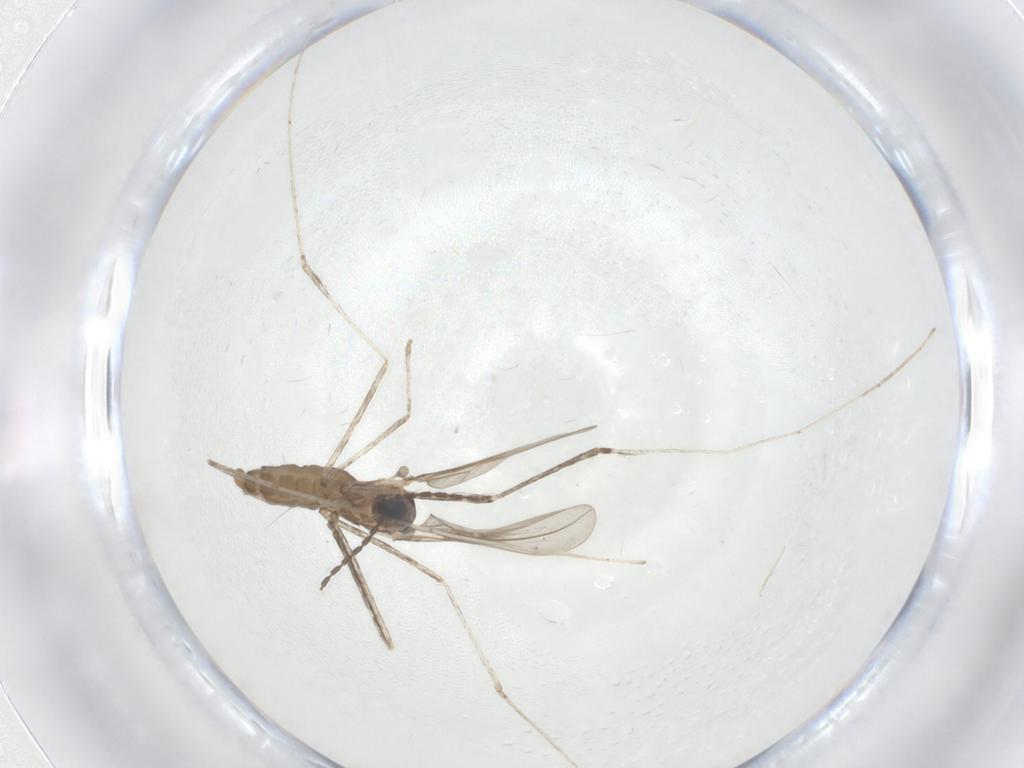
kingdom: Animalia
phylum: Arthropoda
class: Insecta
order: Diptera
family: Cecidomyiidae
